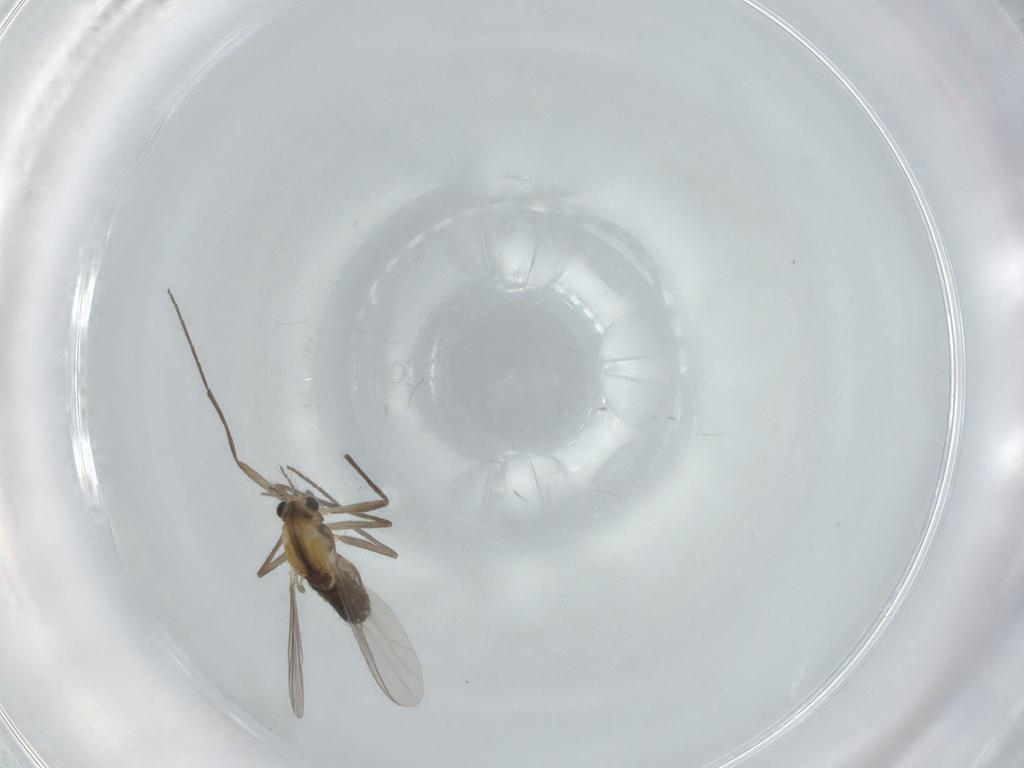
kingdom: Animalia
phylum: Arthropoda
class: Insecta
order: Diptera
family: Chironomidae
